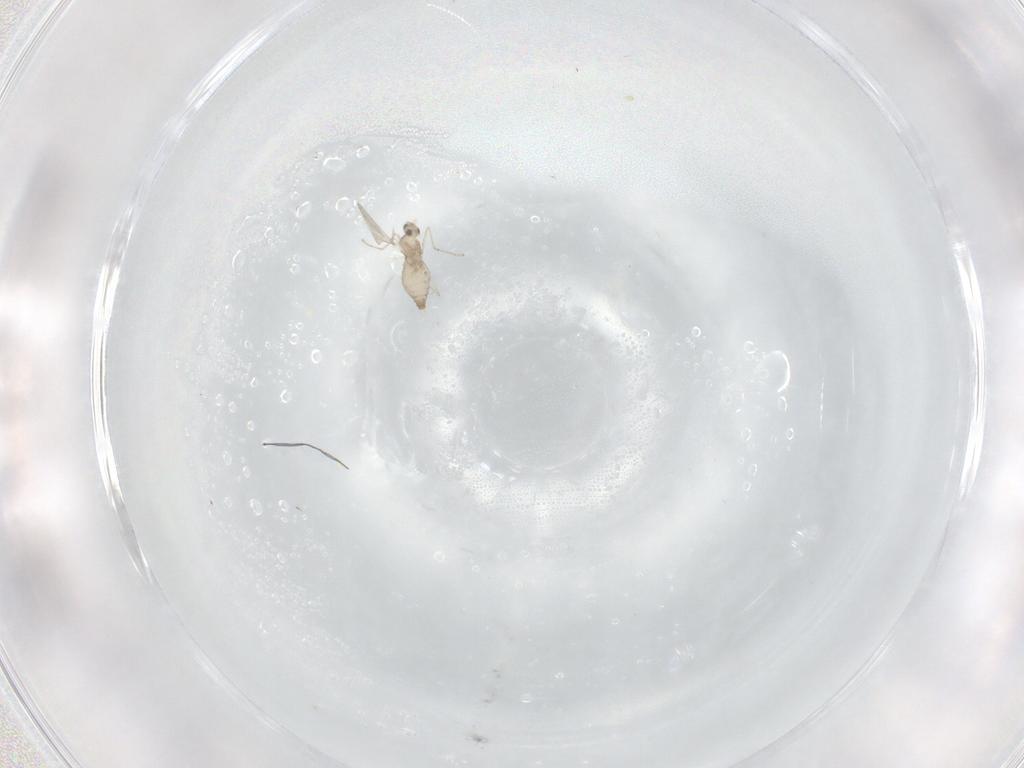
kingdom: Animalia
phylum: Arthropoda
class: Insecta
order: Diptera
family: Cecidomyiidae
